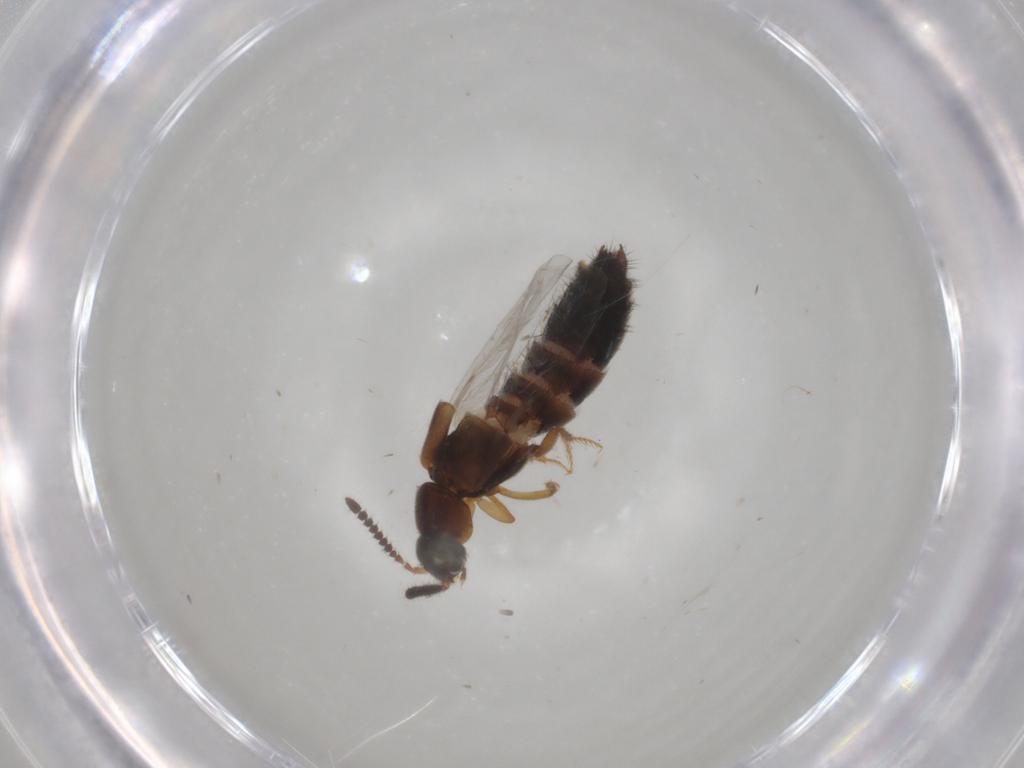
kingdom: Animalia
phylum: Arthropoda
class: Insecta
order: Coleoptera
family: Staphylinidae
